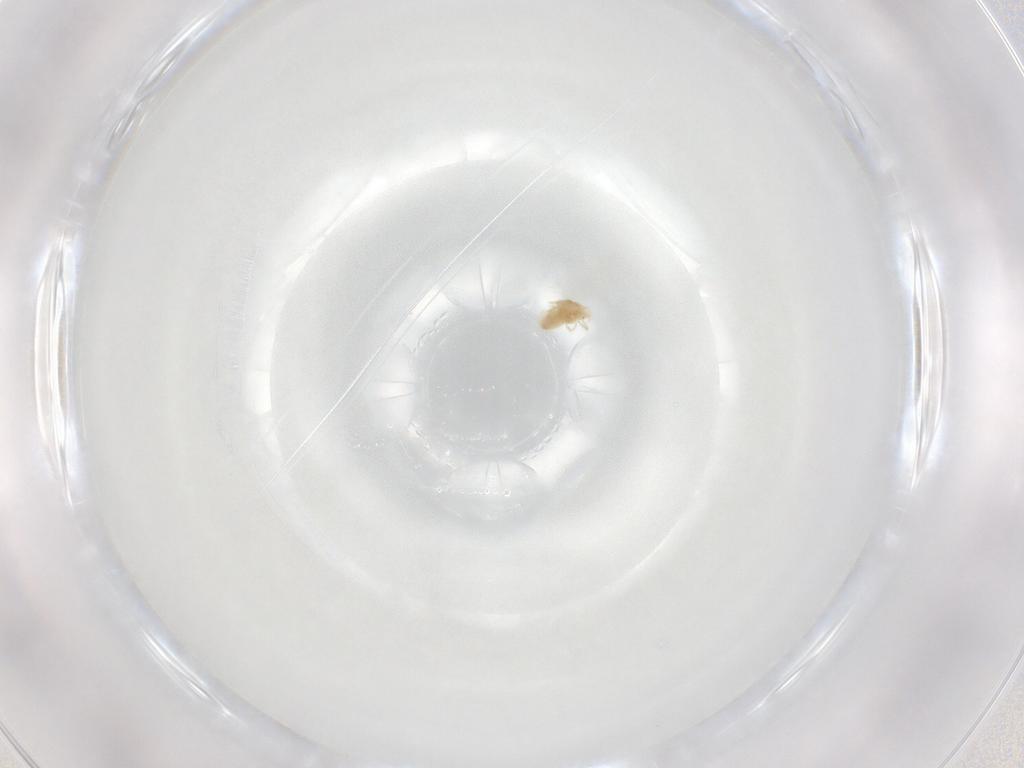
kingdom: Animalia
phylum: Arthropoda
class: Arachnida
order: Trombidiformes
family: Eupodidae
